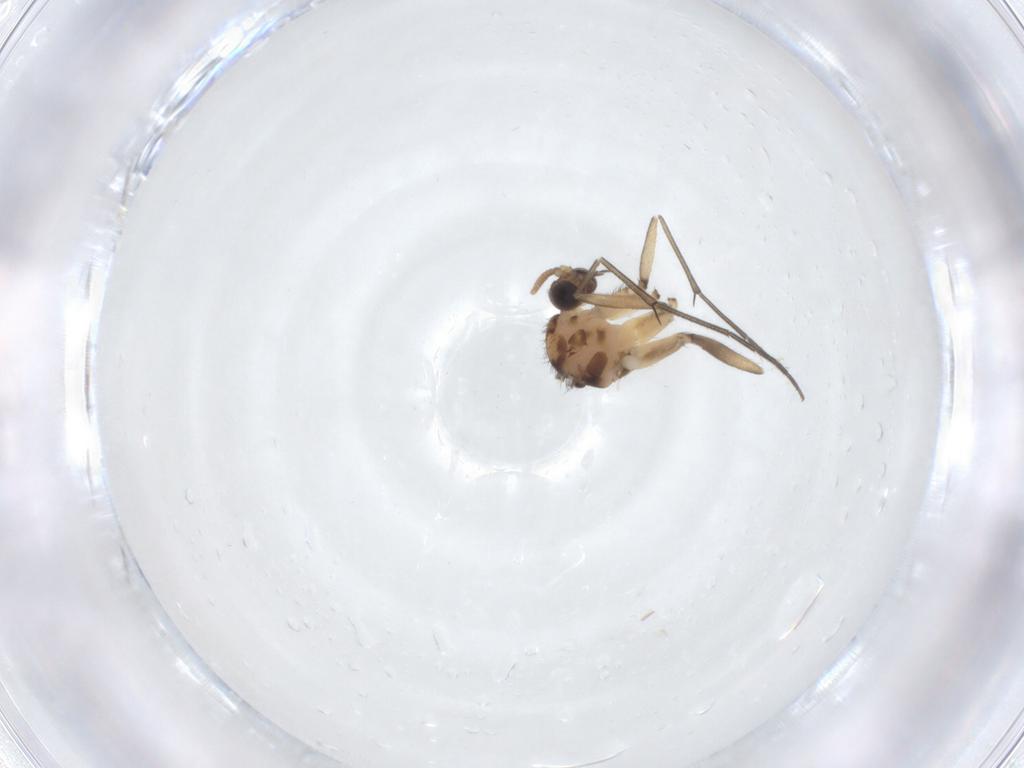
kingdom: Animalia
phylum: Arthropoda
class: Insecta
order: Diptera
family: Keroplatidae
